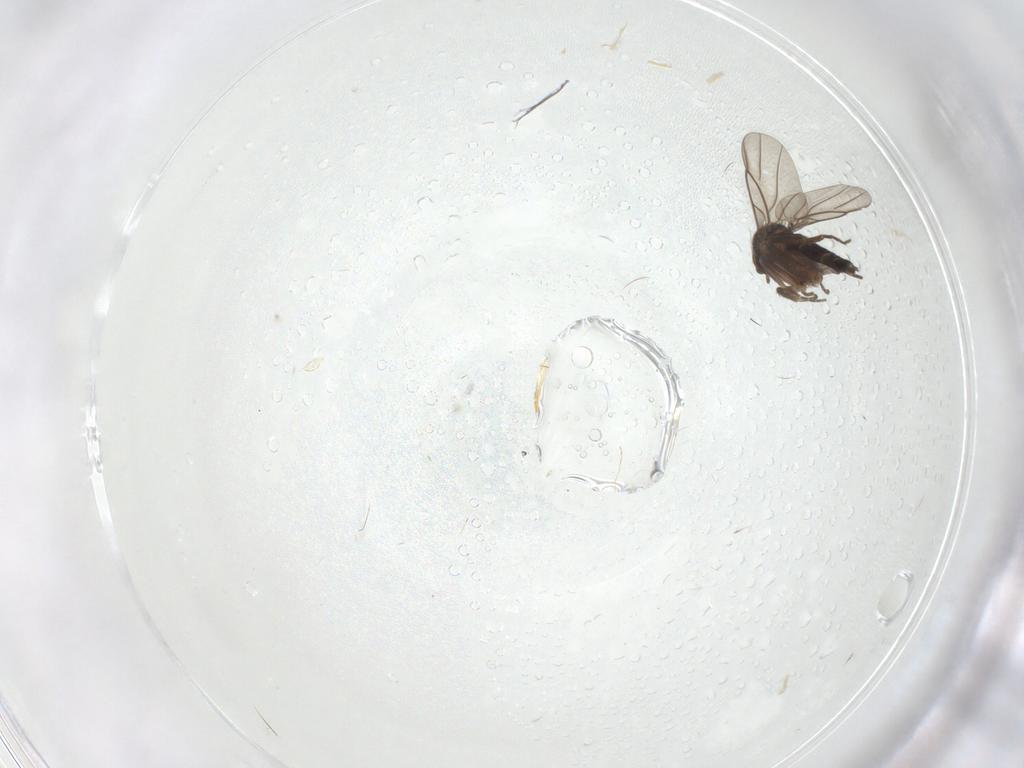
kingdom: Animalia
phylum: Arthropoda
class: Insecta
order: Diptera
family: Phoridae
